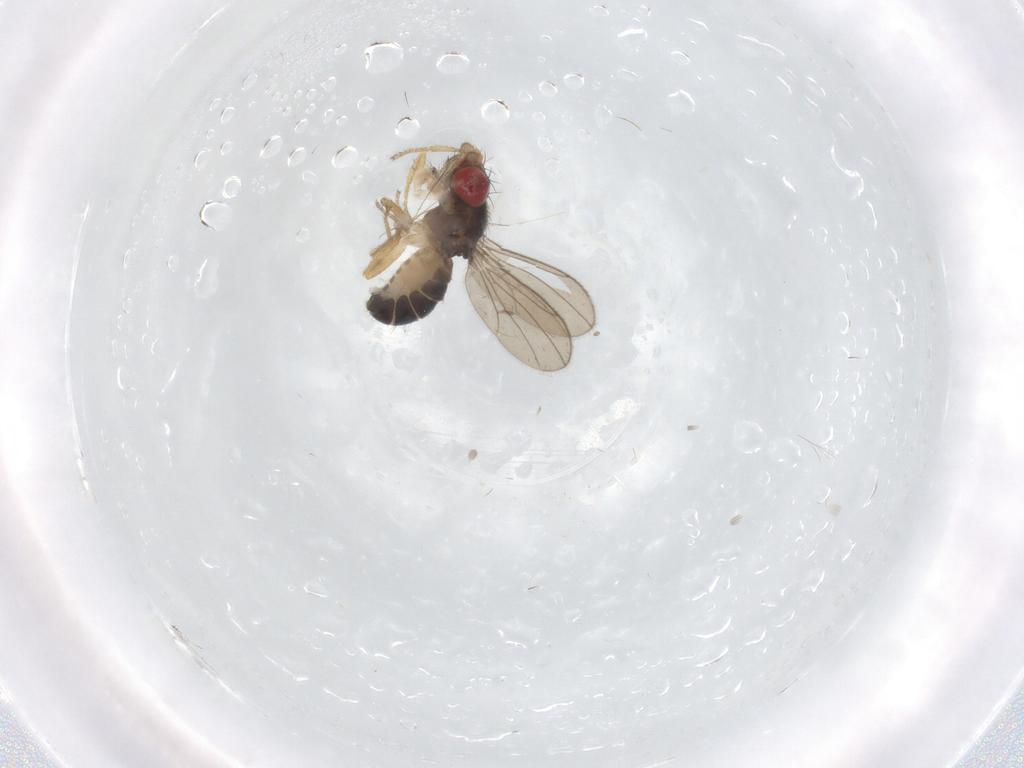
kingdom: Animalia
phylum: Arthropoda
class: Insecta
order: Diptera
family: Drosophilidae
